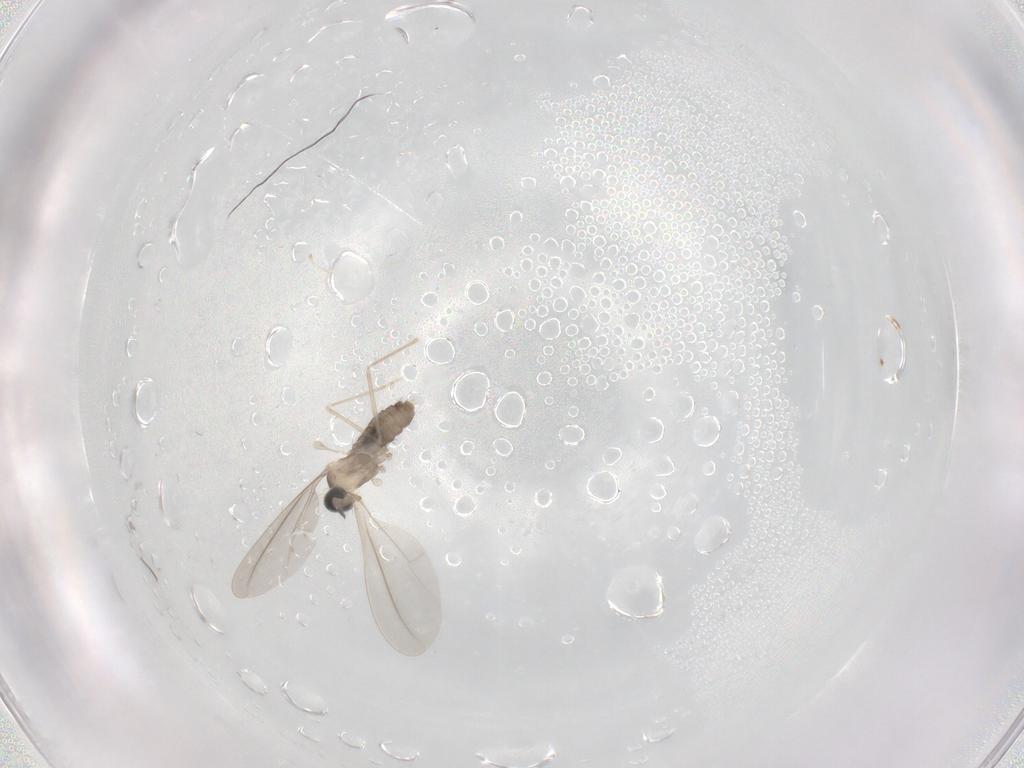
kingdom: Animalia
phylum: Arthropoda
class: Insecta
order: Diptera
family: Cecidomyiidae
